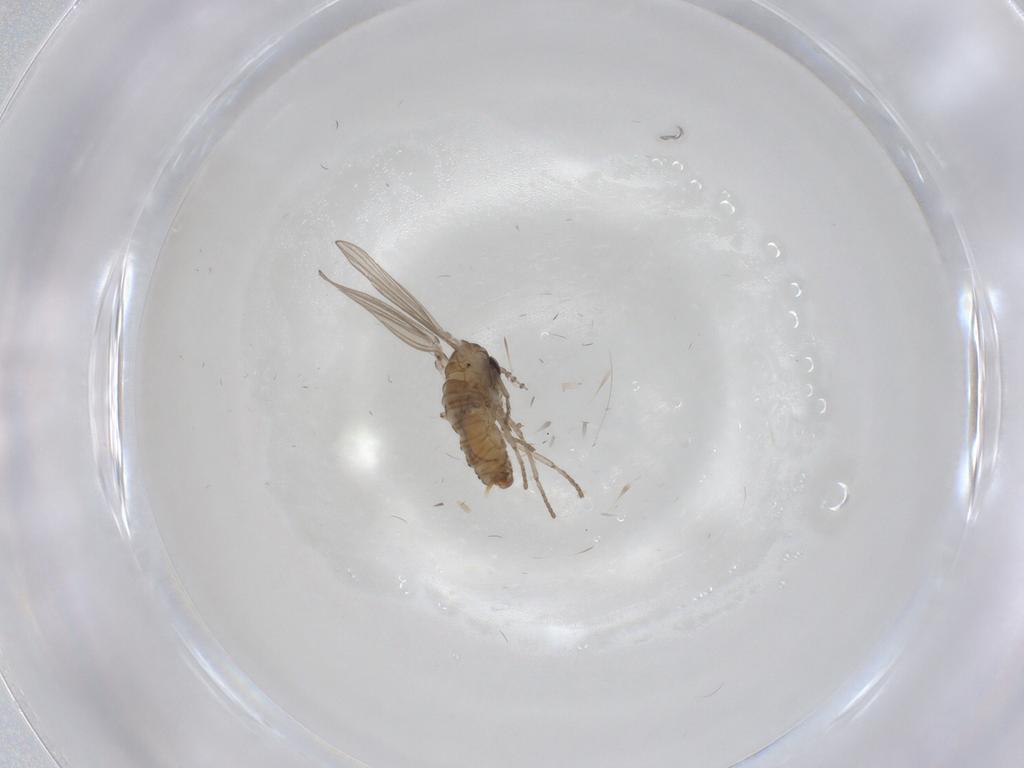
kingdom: Animalia
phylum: Arthropoda
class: Insecta
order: Diptera
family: Psychodidae
